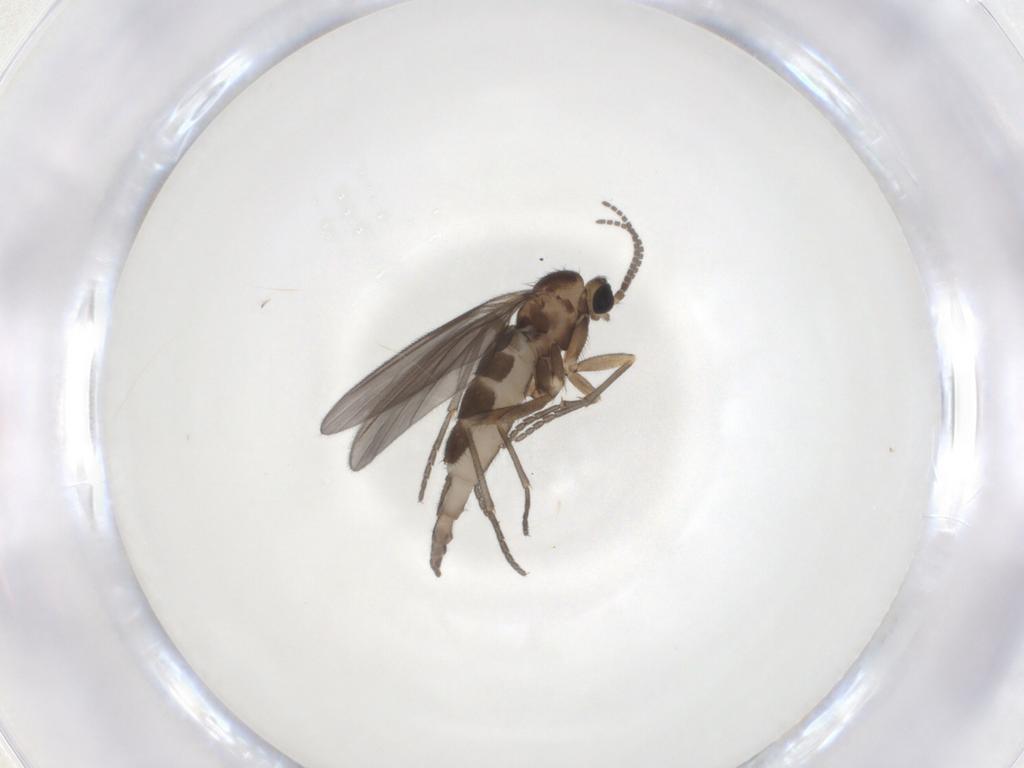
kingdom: Animalia
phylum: Arthropoda
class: Insecta
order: Diptera
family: Sciaridae
